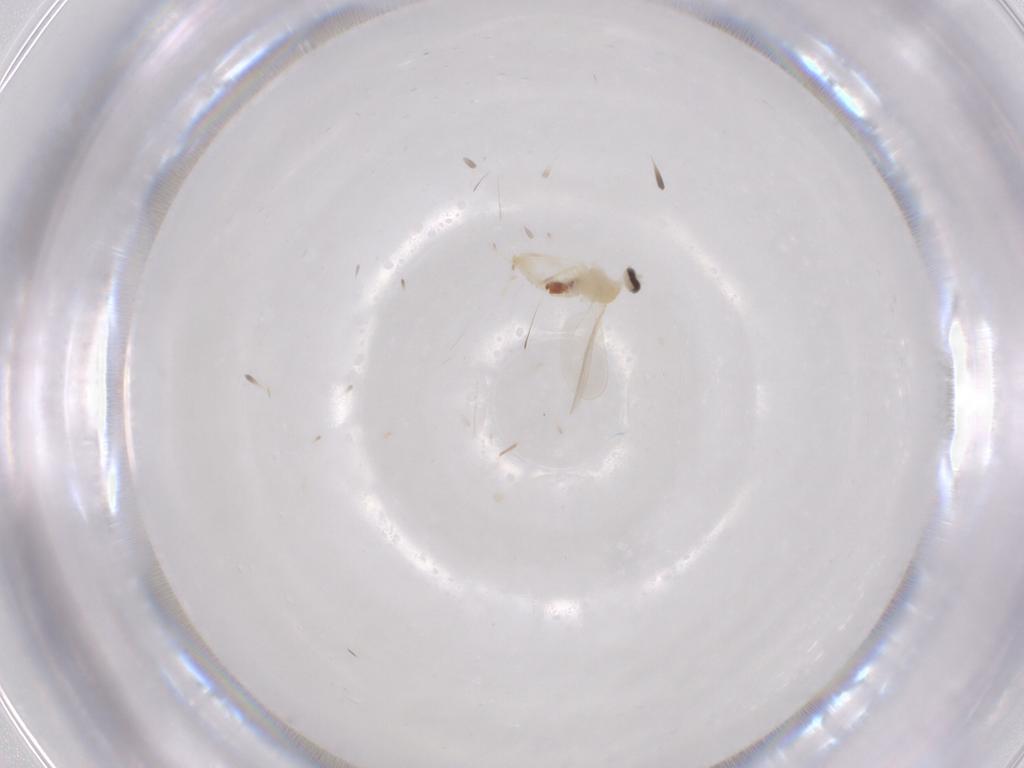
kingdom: Animalia
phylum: Arthropoda
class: Insecta
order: Diptera
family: Cecidomyiidae
